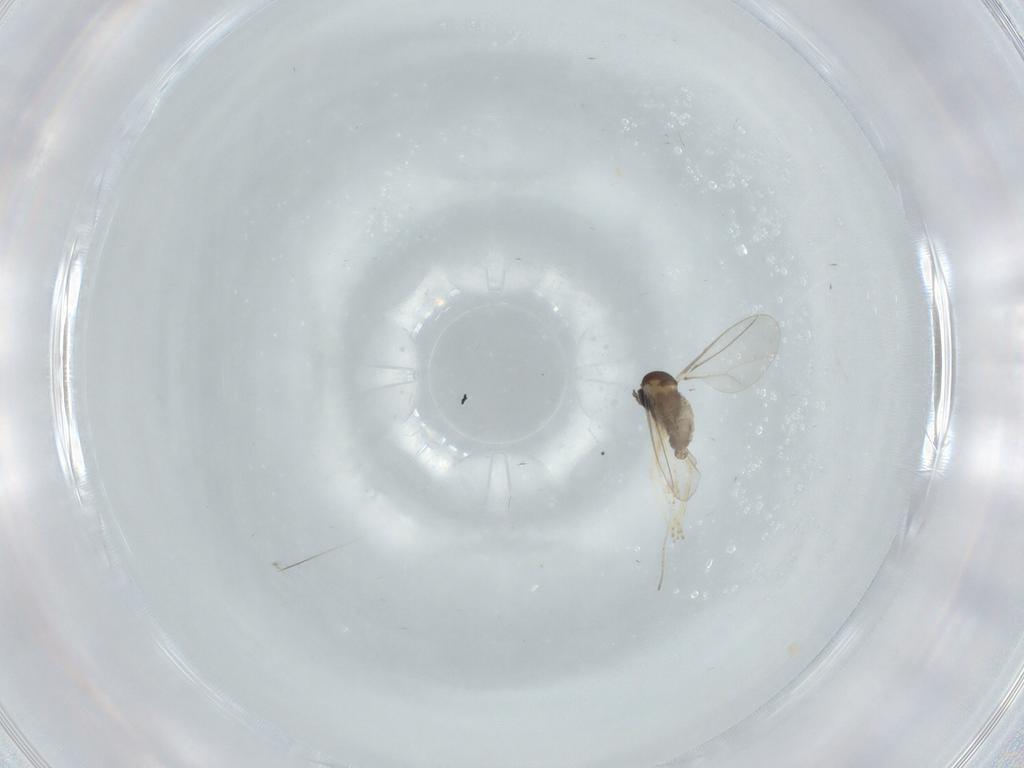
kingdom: Animalia
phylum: Arthropoda
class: Insecta
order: Diptera
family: Cecidomyiidae
